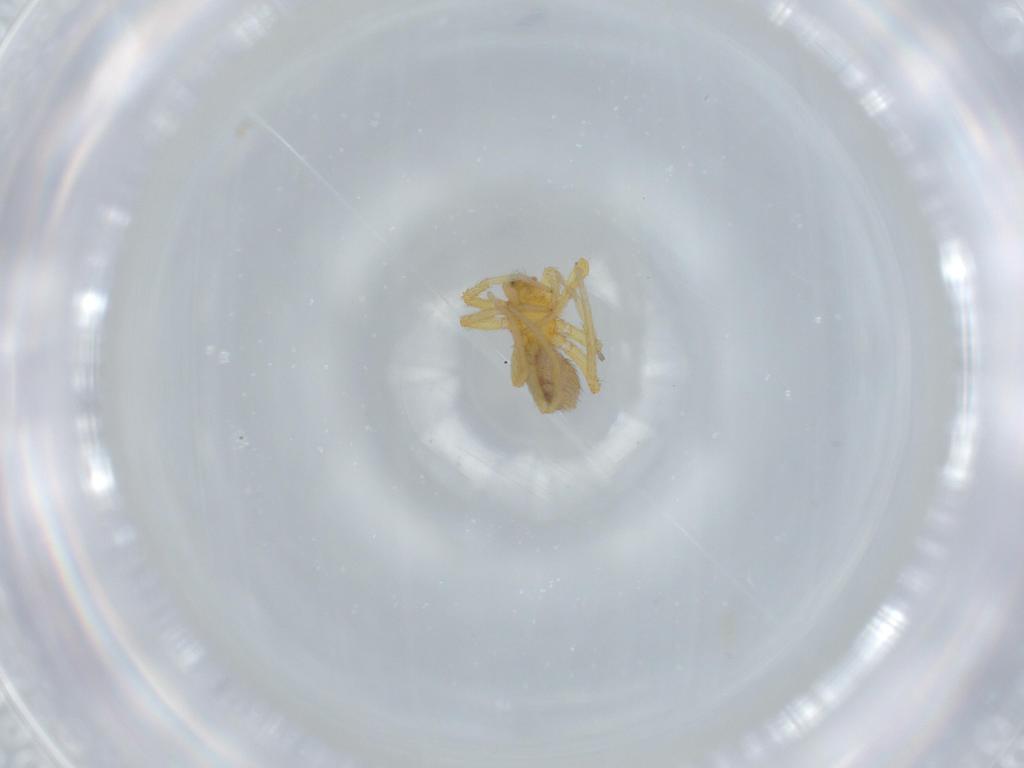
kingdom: Animalia
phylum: Arthropoda
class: Arachnida
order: Araneae
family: Oonopidae
